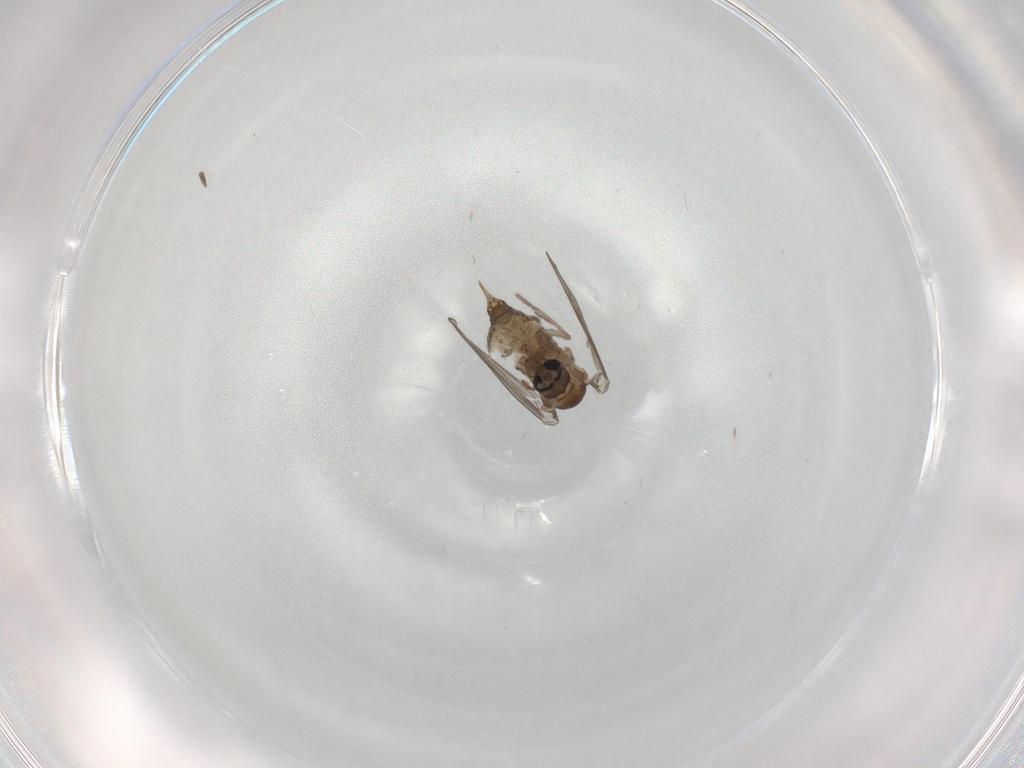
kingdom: Animalia
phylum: Arthropoda
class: Insecta
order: Diptera
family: Psychodidae
